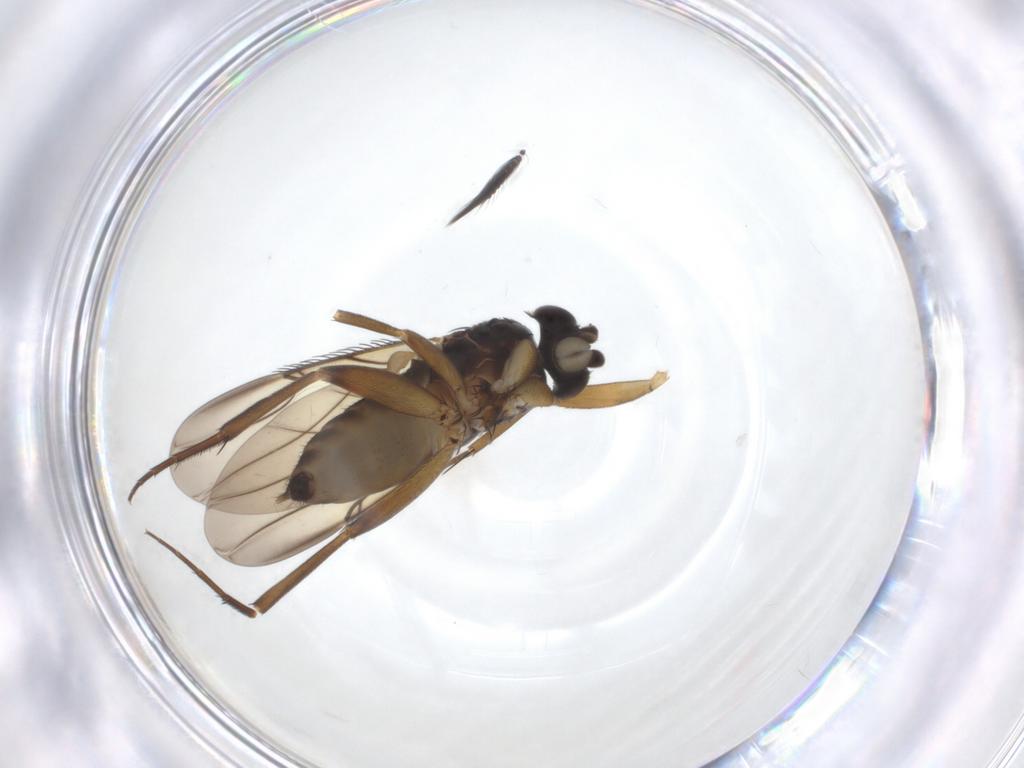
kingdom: Animalia
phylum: Arthropoda
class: Insecta
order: Diptera
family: Phoridae
